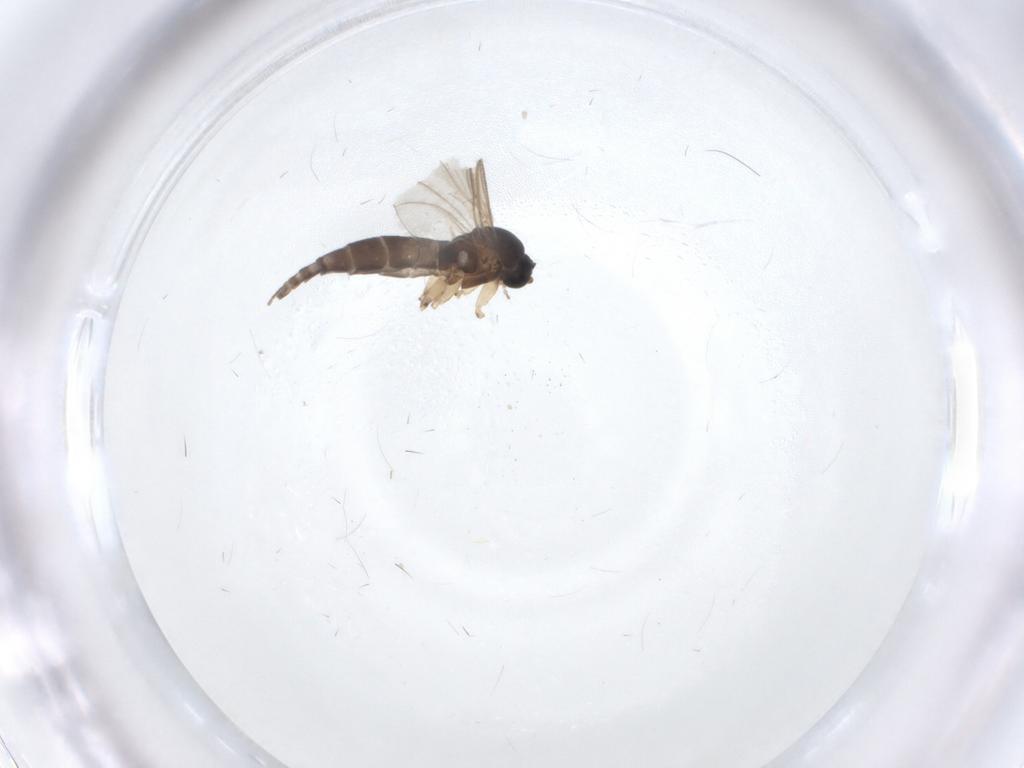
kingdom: Animalia
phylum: Arthropoda
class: Insecta
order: Diptera
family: Sciaridae
